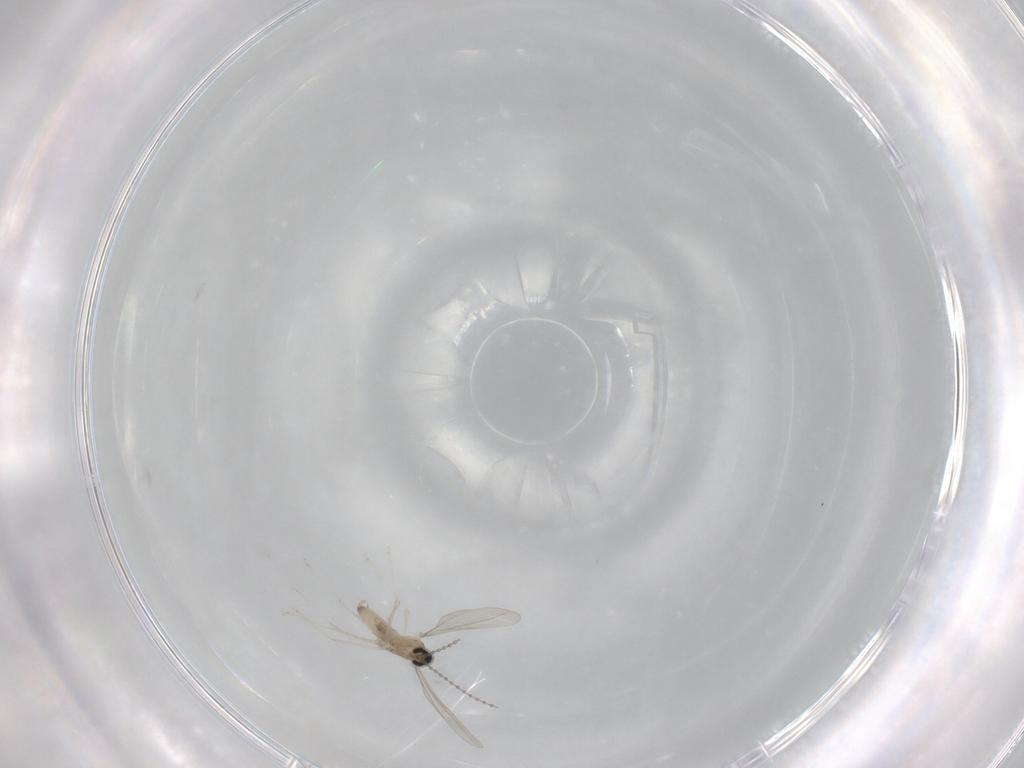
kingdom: Animalia
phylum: Arthropoda
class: Insecta
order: Diptera
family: Cecidomyiidae
